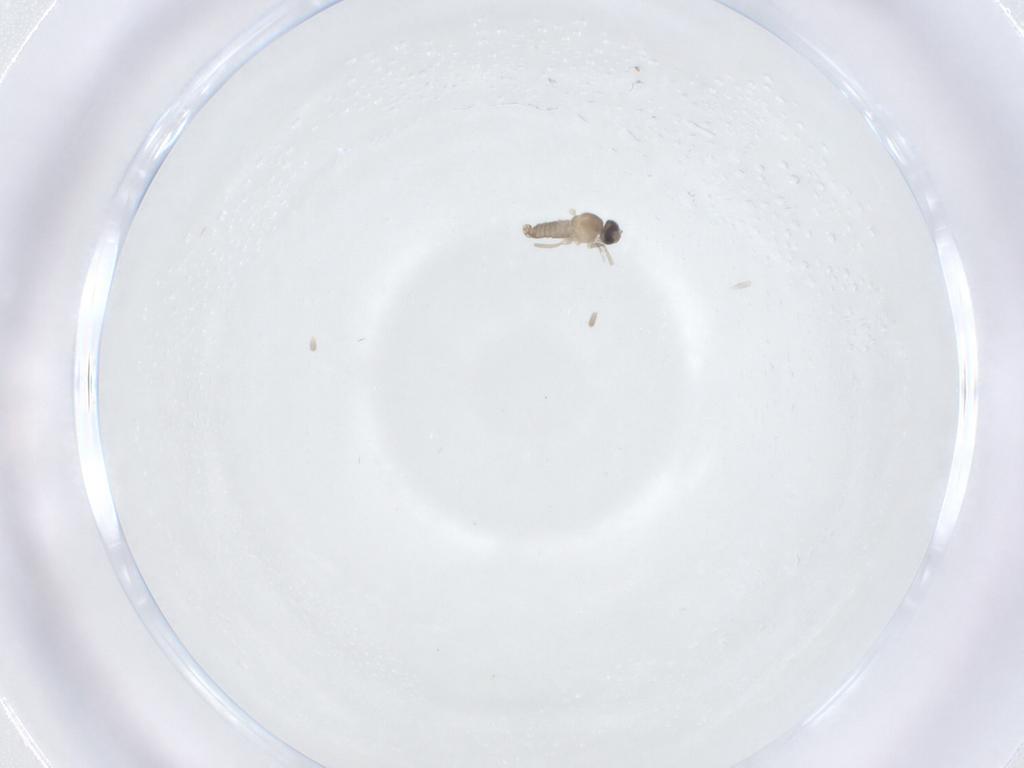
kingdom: Animalia
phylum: Arthropoda
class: Insecta
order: Diptera
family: Cecidomyiidae
